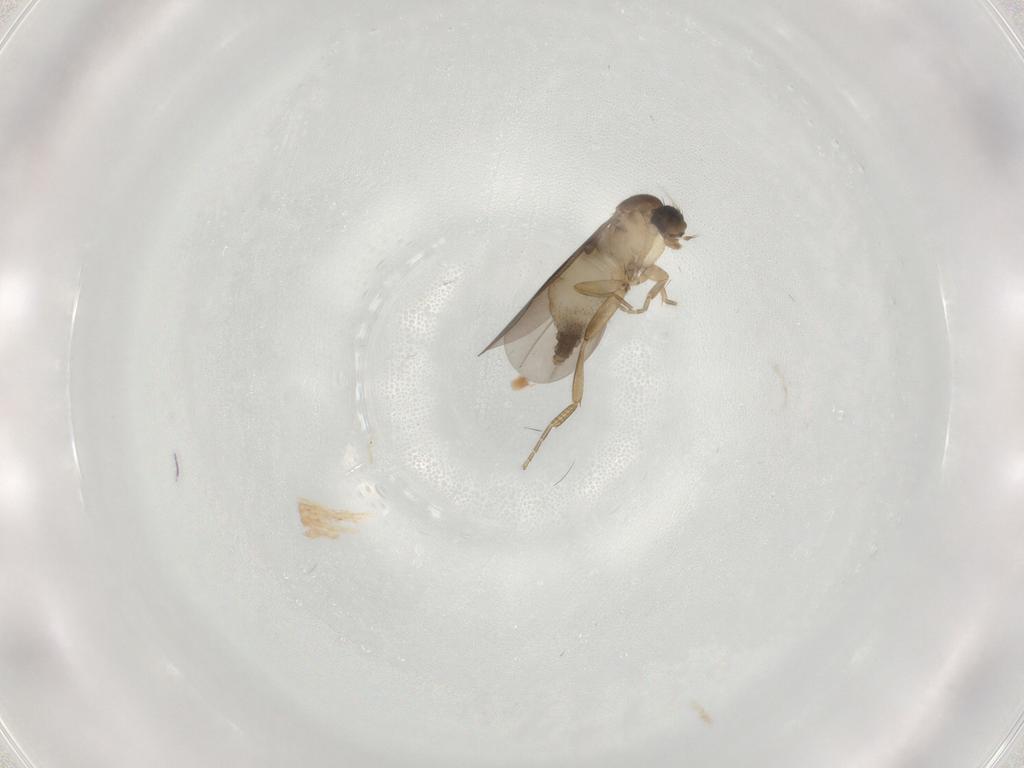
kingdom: Animalia
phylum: Arthropoda
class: Insecta
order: Diptera
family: Phoridae
